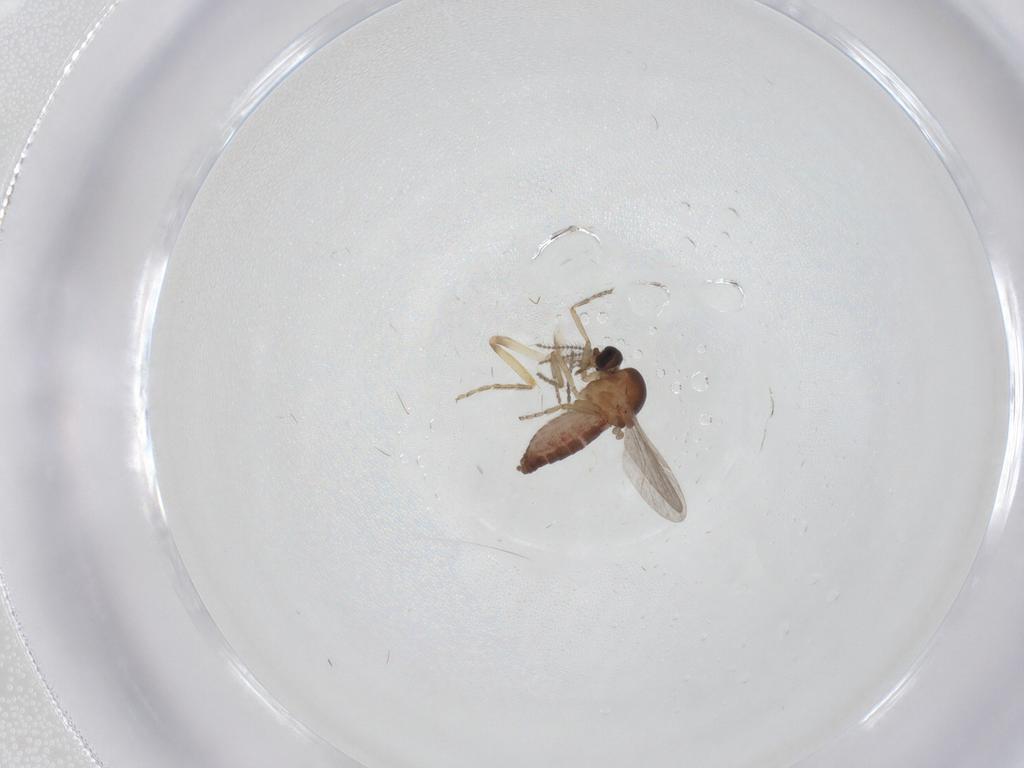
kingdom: Animalia
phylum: Arthropoda
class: Insecta
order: Diptera
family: Ceratopogonidae
